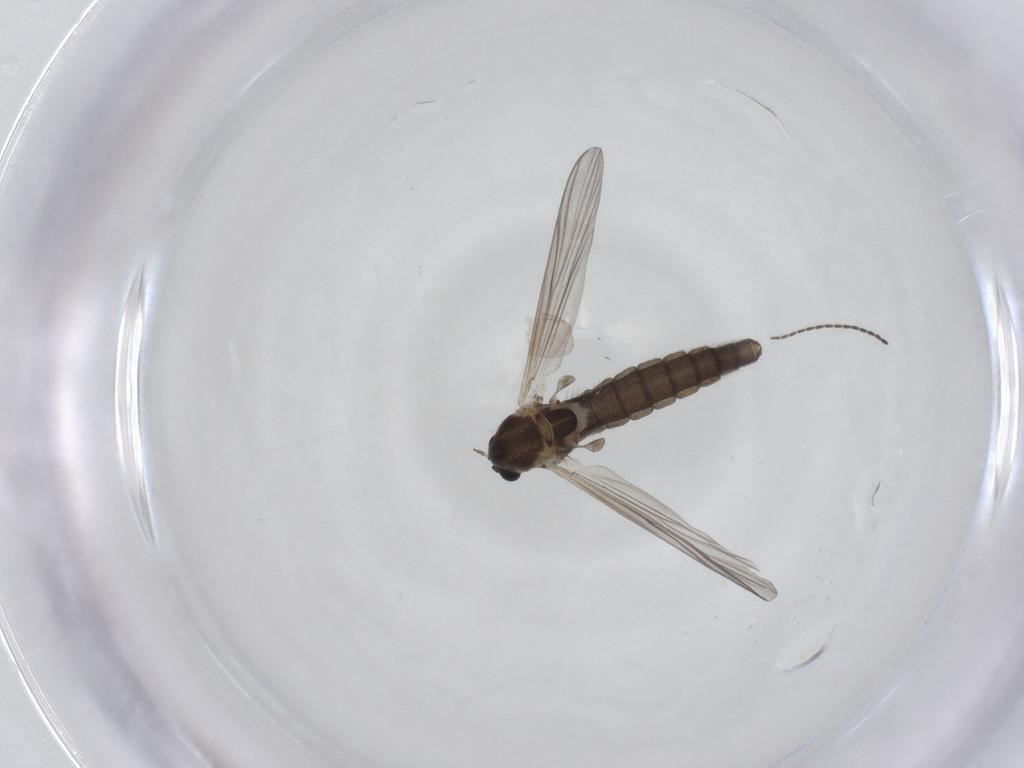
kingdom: Animalia
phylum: Arthropoda
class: Insecta
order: Diptera
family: Chironomidae
